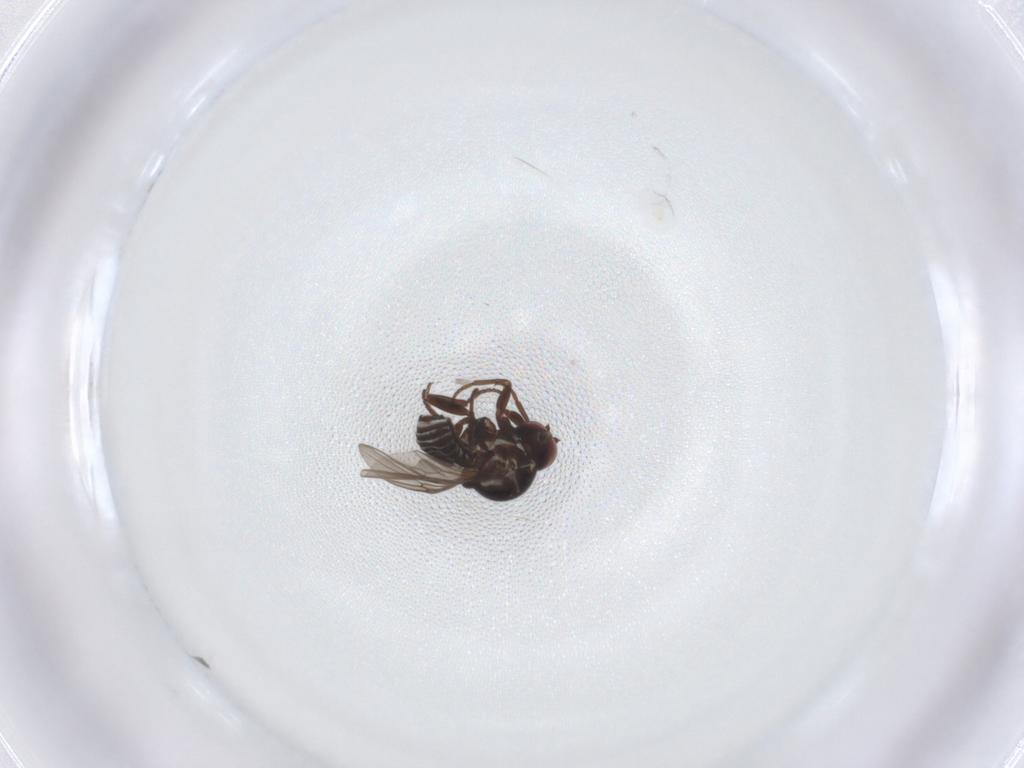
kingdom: Animalia
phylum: Arthropoda
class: Insecta
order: Diptera
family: Mythicomyiidae
